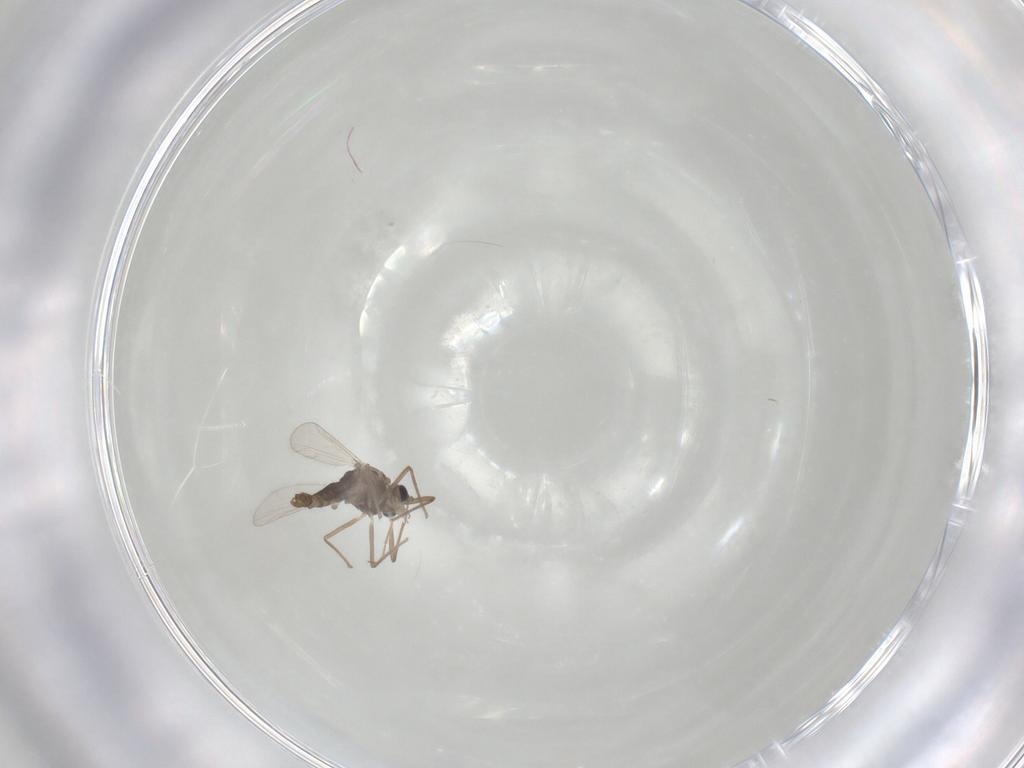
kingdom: Animalia
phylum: Arthropoda
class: Insecta
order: Diptera
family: Chironomidae
